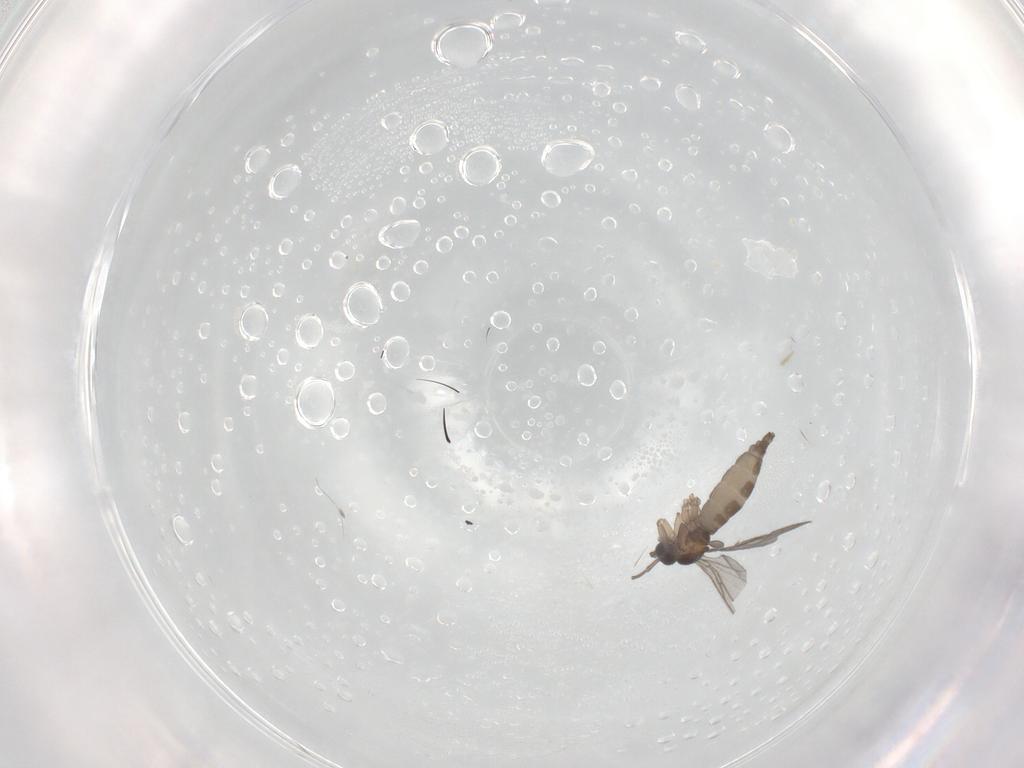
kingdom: Animalia
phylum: Arthropoda
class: Insecta
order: Diptera
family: Sciaridae
